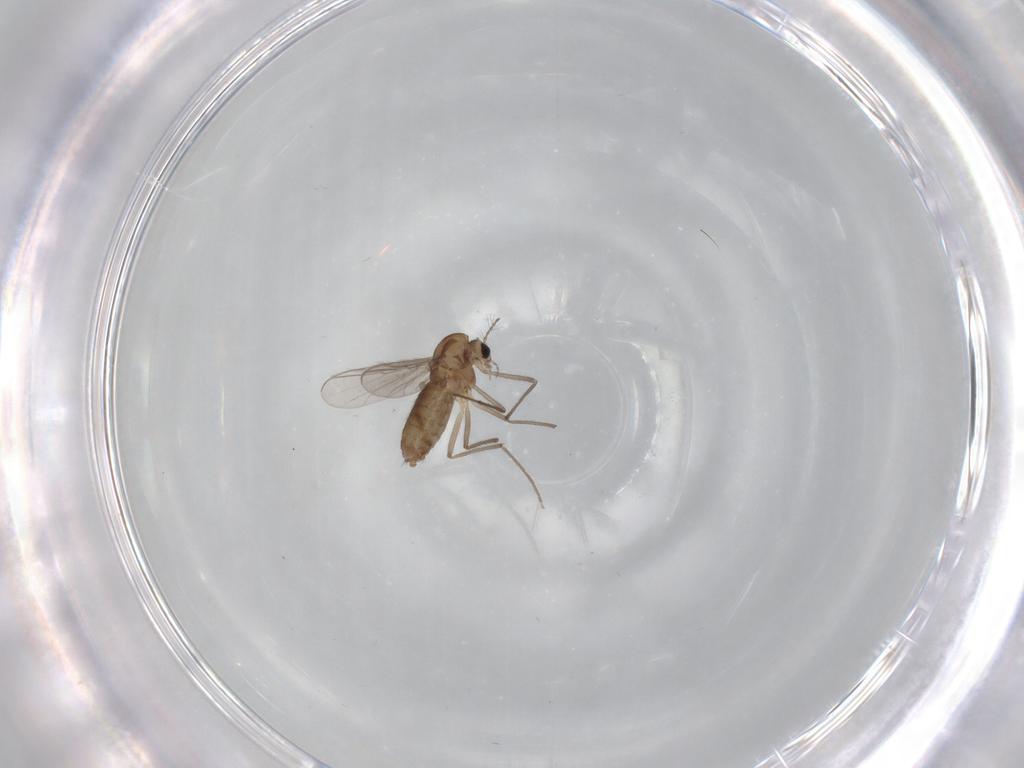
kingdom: Animalia
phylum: Arthropoda
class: Insecta
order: Diptera
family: Chironomidae
